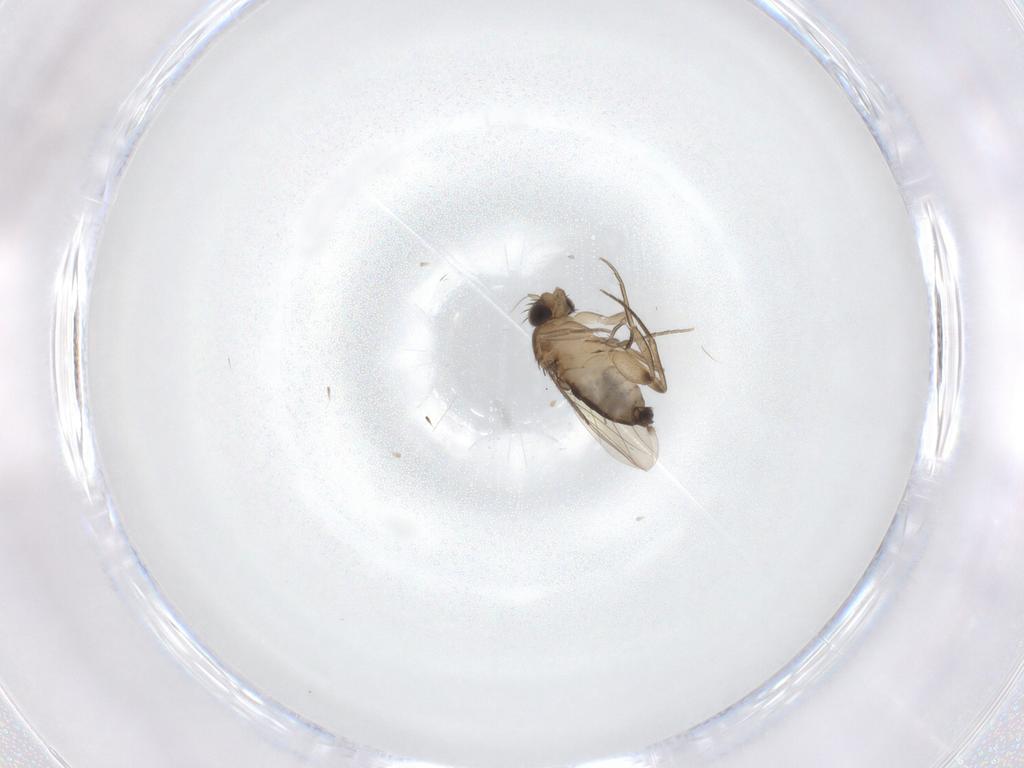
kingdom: Animalia
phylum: Arthropoda
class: Insecta
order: Diptera
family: Phoridae
